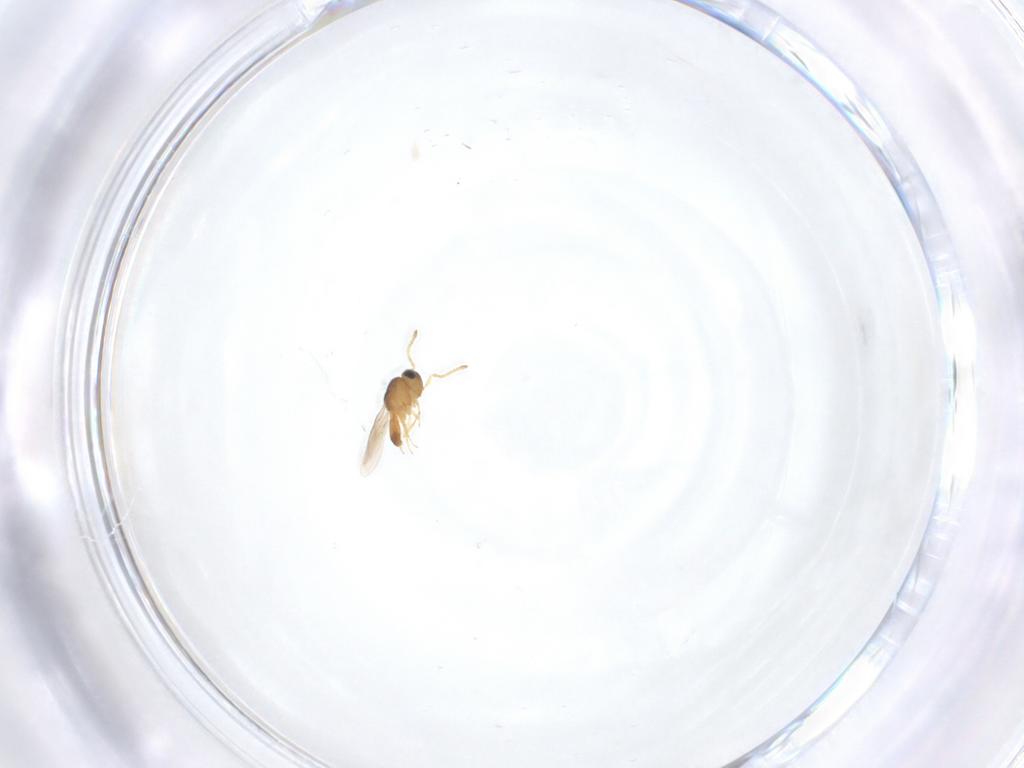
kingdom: Animalia
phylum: Arthropoda
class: Insecta
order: Hymenoptera
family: Scelionidae
